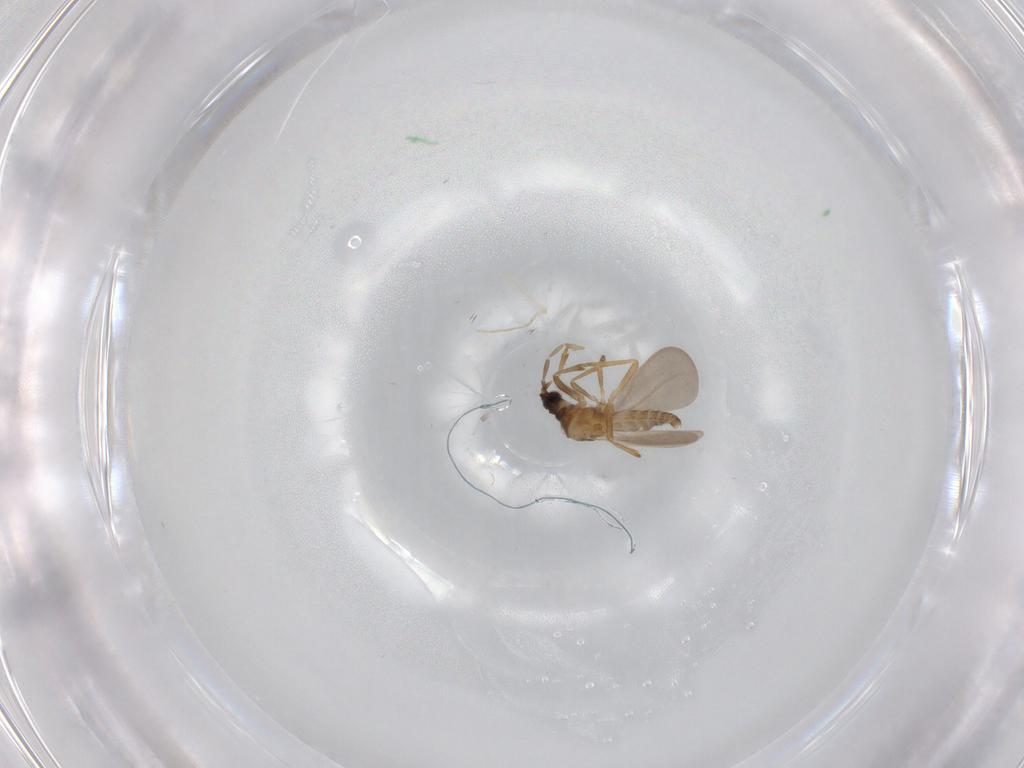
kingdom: Animalia
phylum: Arthropoda
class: Insecta
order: Hemiptera
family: Enicocephalidae
